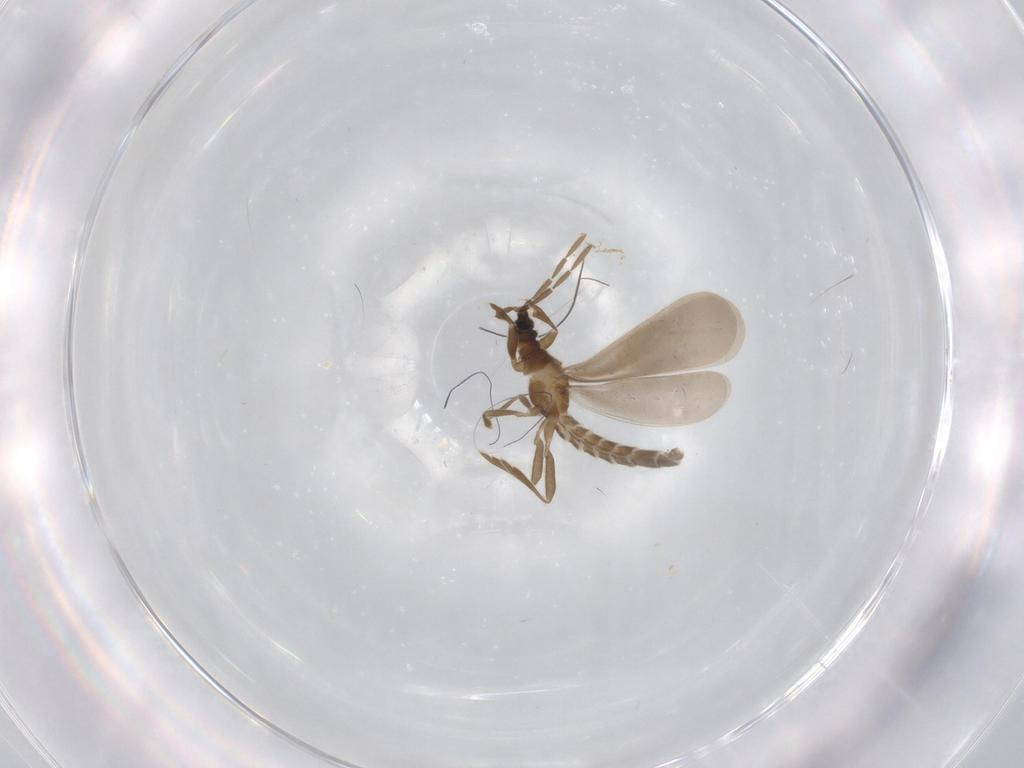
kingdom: Animalia
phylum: Arthropoda
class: Insecta
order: Hemiptera
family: Enicocephalidae
